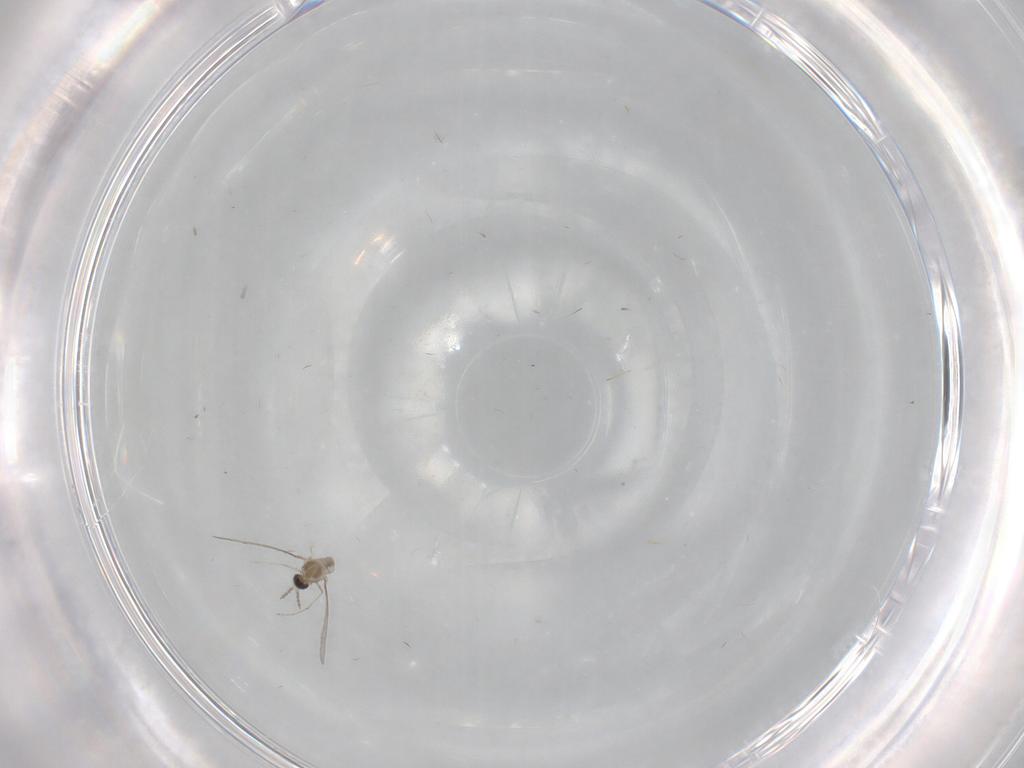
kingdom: Animalia
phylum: Arthropoda
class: Insecta
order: Diptera
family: Cecidomyiidae
